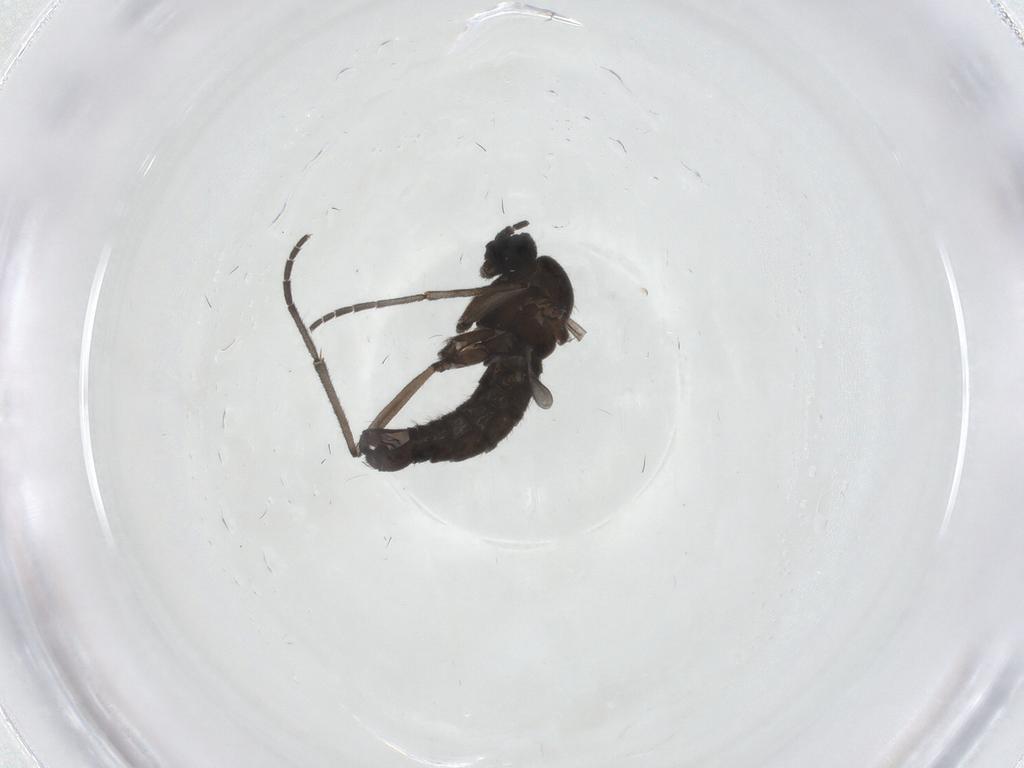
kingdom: Animalia
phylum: Arthropoda
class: Insecta
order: Diptera
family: Sciaridae
